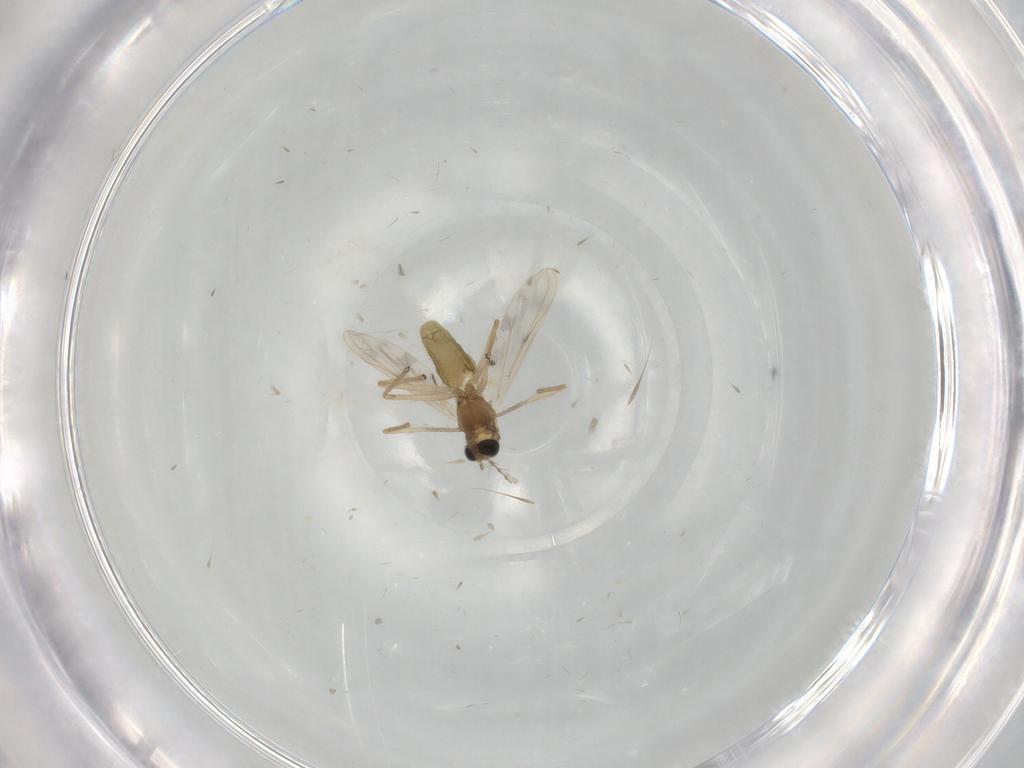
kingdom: Animalia
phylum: Arthropoda
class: Insecta
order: Diptera
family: Chironomidae
